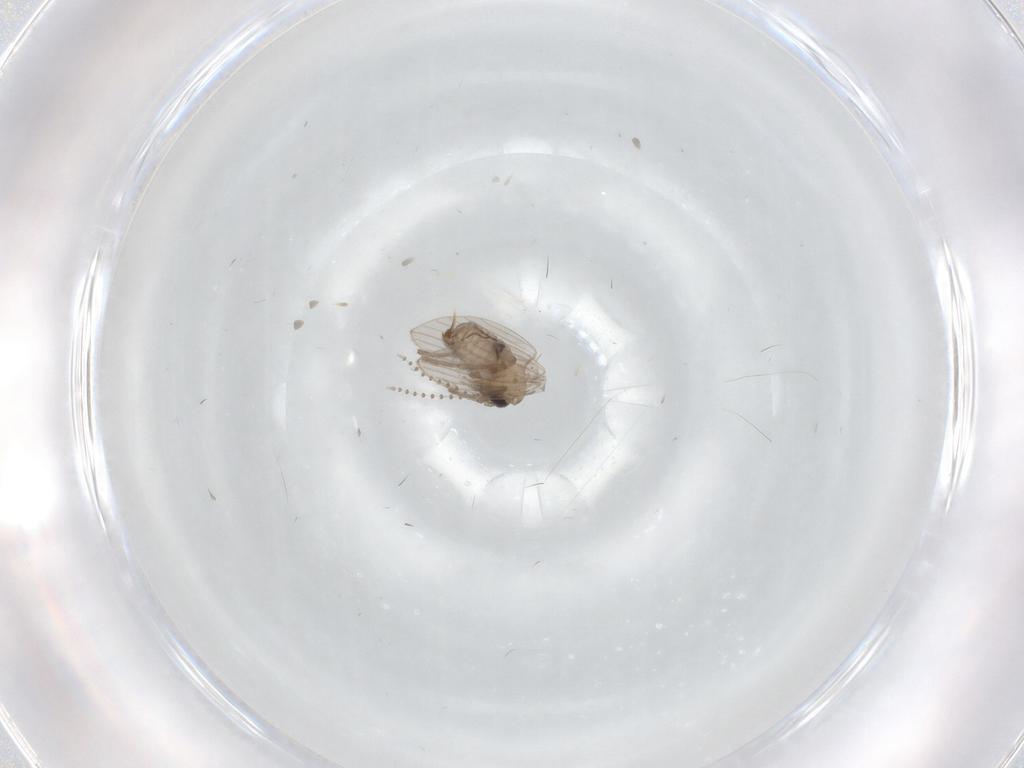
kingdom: Animalia
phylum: Arthropoda
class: Insecta
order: Diptera
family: Psychodidae
